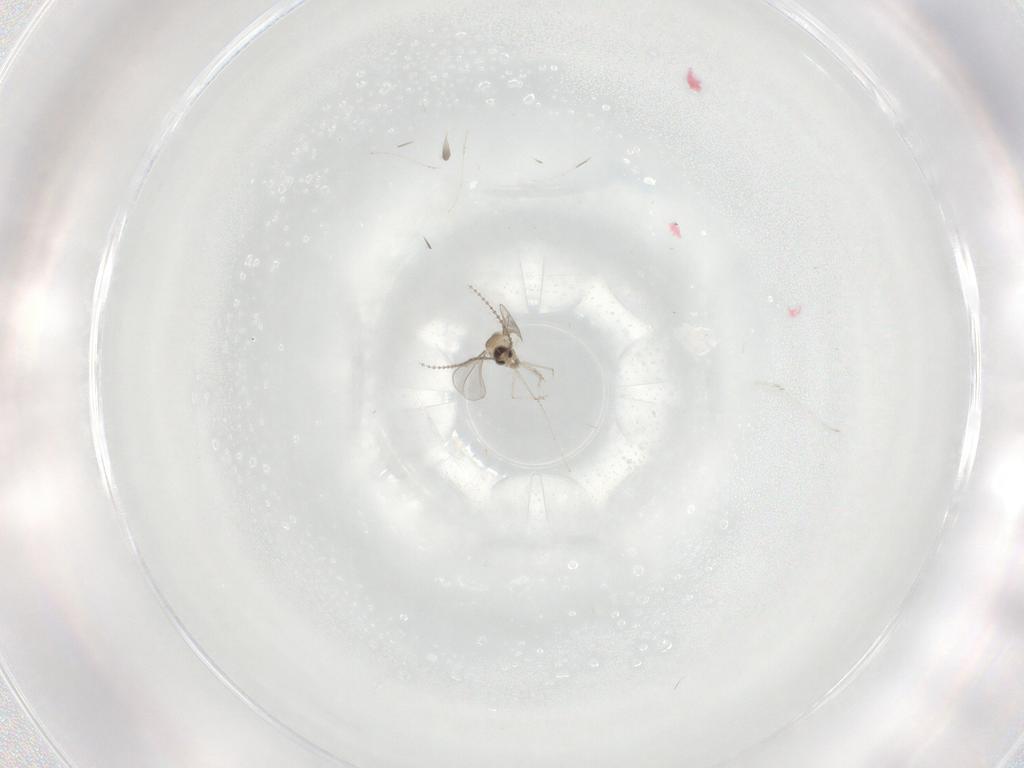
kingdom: Animalia
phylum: Arthropoda
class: Insecta
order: Diptera
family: Cecidomyiidae
